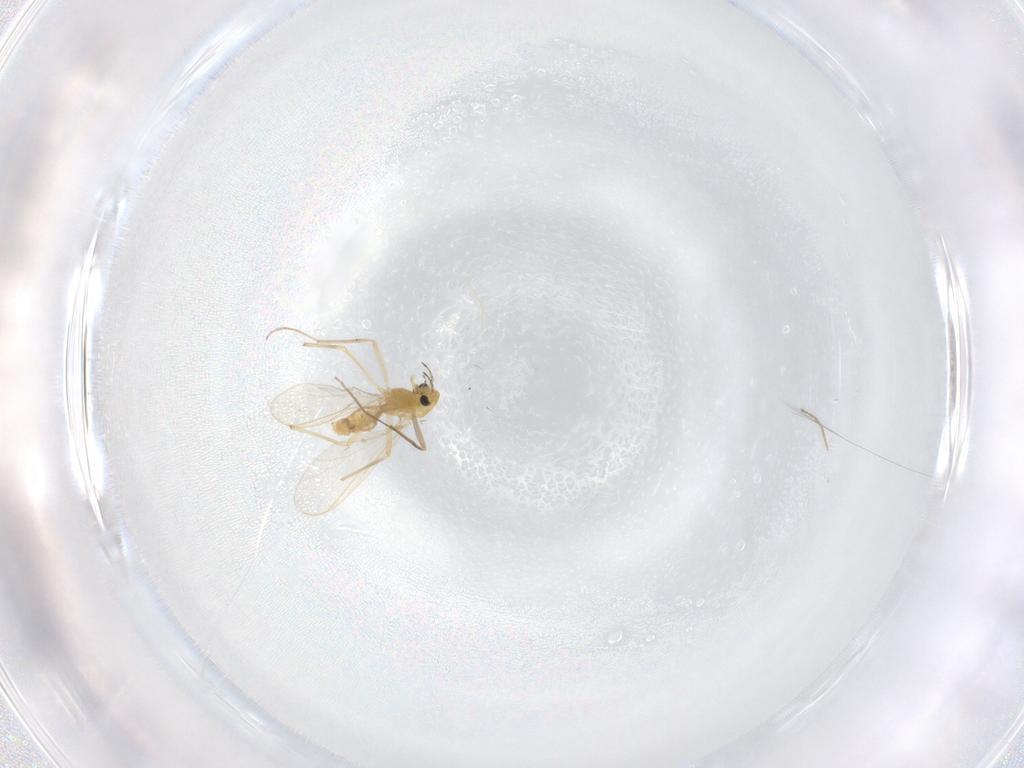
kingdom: Animalia
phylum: Arthropoda
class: Insecta
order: Diptera
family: Chironomidae
